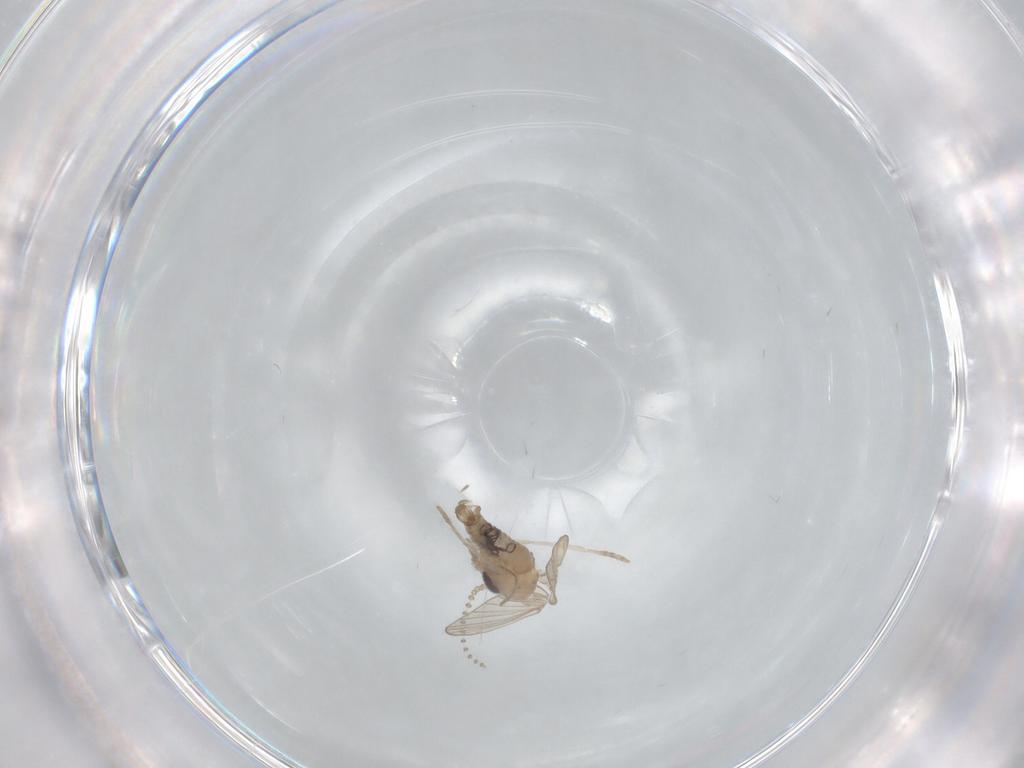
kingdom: Animalia
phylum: Arthropoda
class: Insecta
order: Diptera
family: Psychodidae
